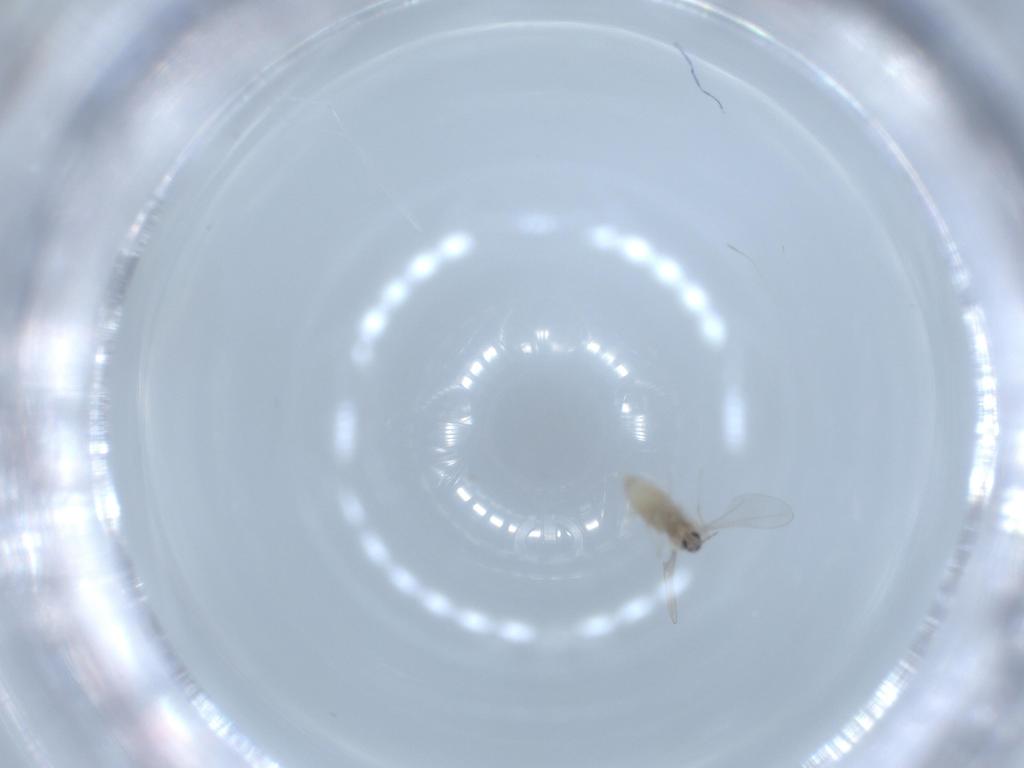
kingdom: Animalia
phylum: Arthropoda
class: Insecta
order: Diptera
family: Cecidomyiidae
